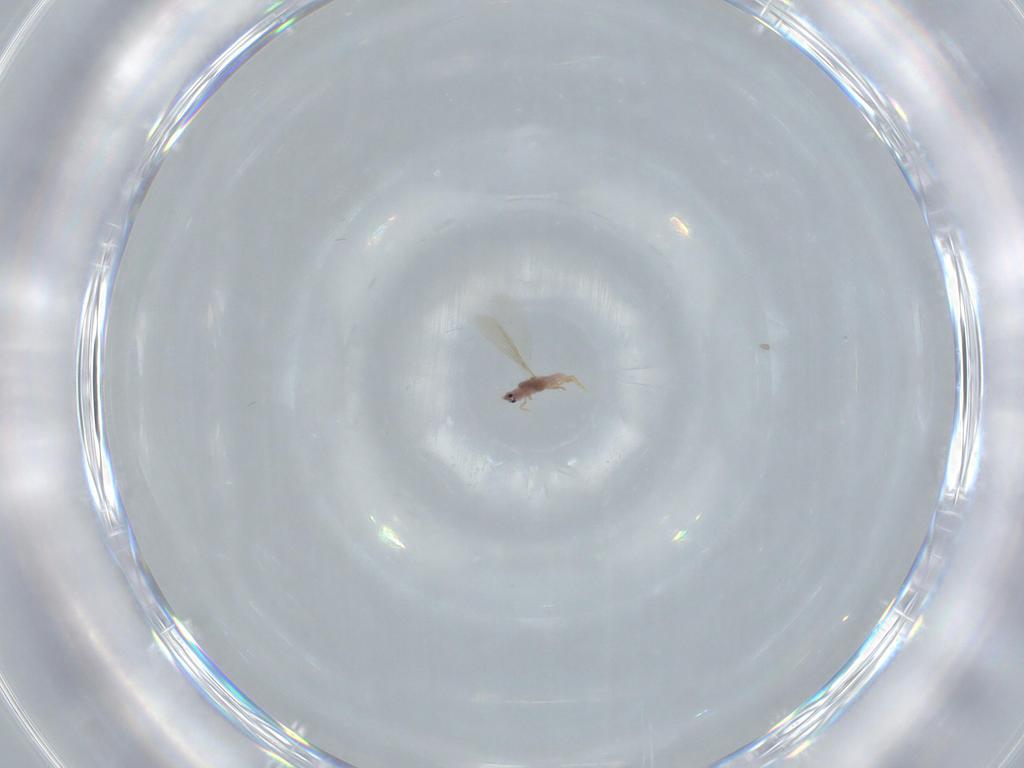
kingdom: Animalia
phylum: Arthropoda
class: Insecta
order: Hemiptera
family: Diaspididae
